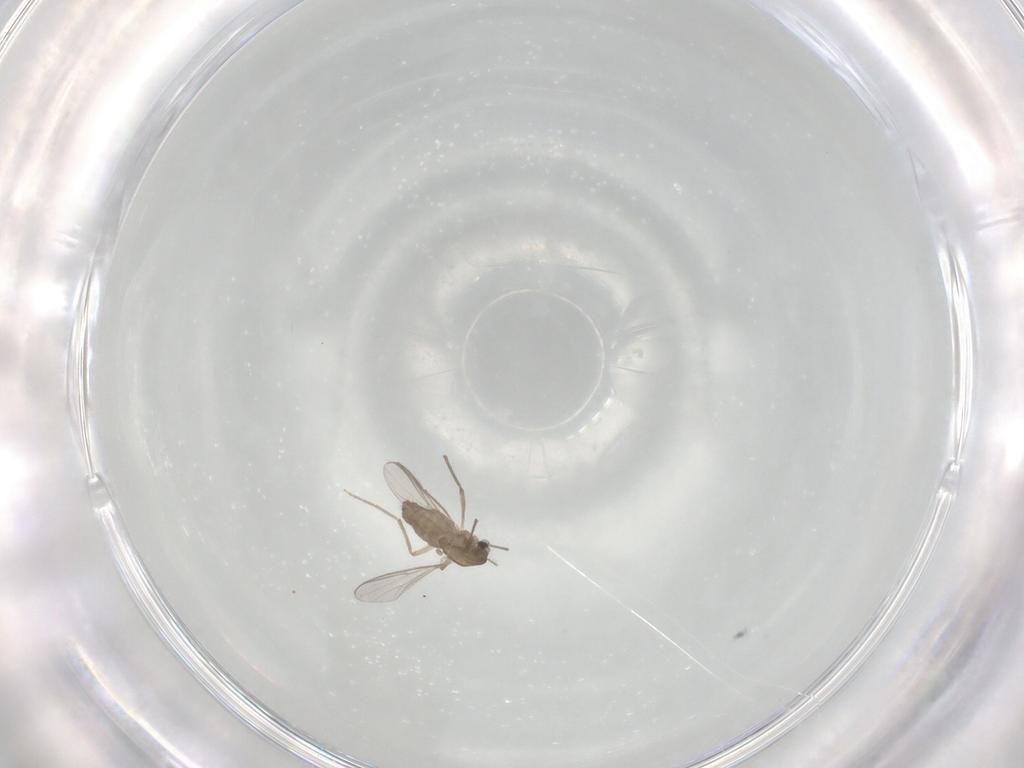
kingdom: Animalia
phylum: Arthropoda
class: Insecta
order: Diptera
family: Chironomidae
